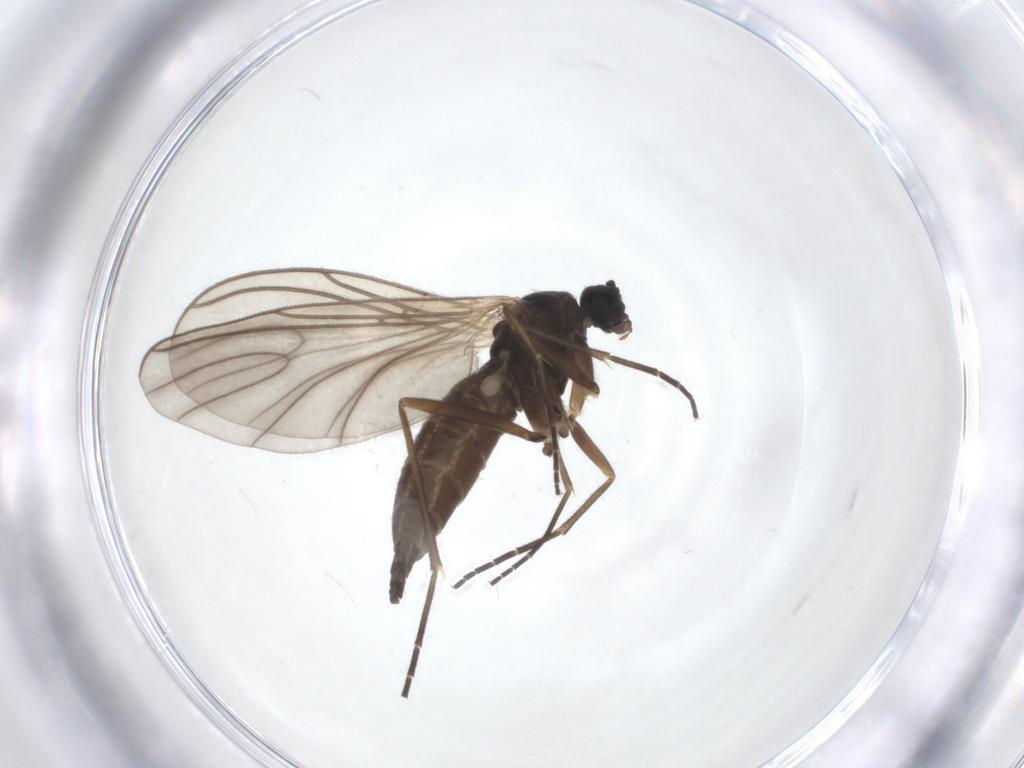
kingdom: Animalia
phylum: Arthropoda
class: Insecta
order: Diptera
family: Sciaridae
